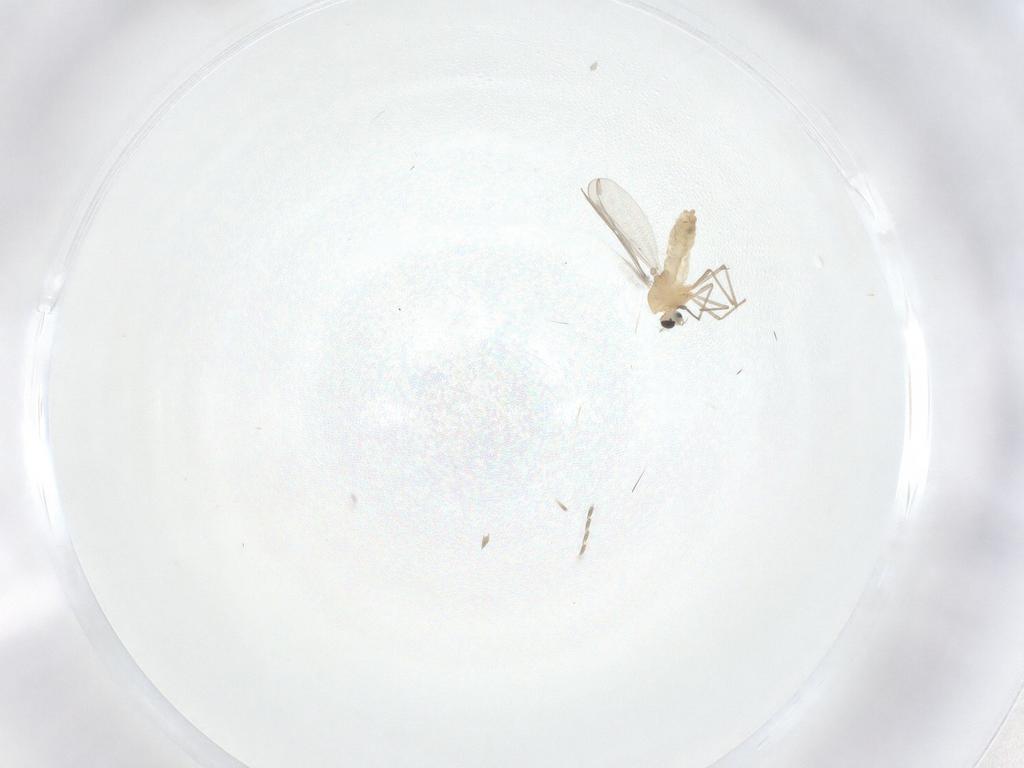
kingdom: Animalia
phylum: Arthropoda
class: Insecta
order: Diptera
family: Chironomidae
